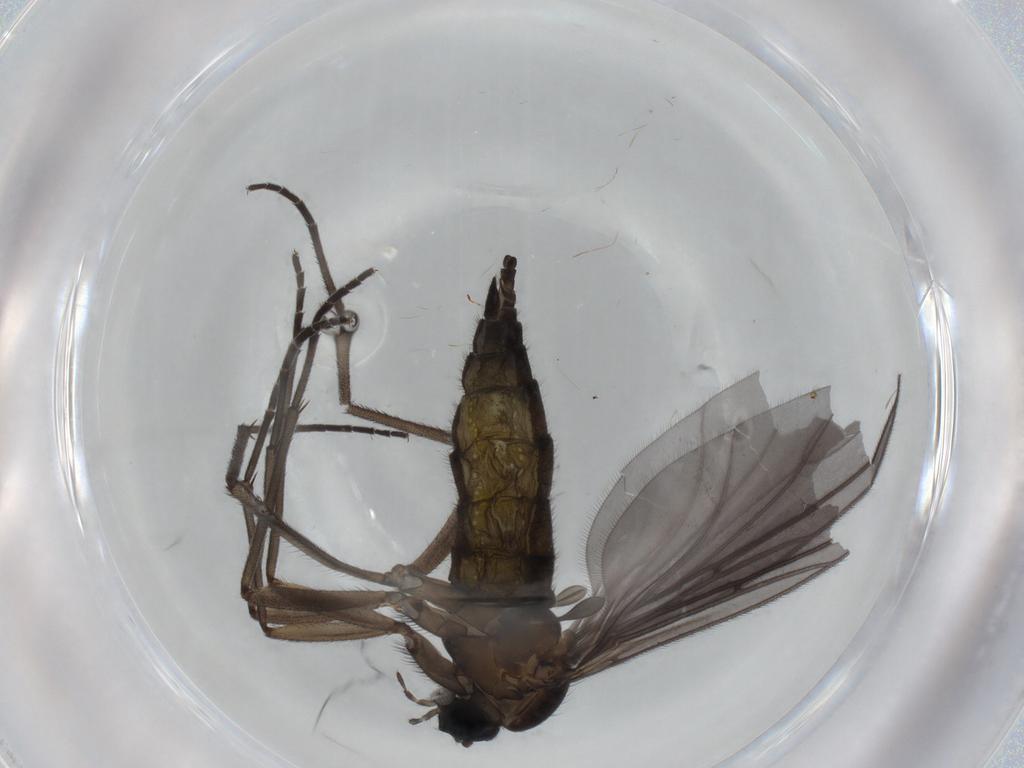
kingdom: Animalia
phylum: Arthropoda
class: Insecta
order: Diptera
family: Sciaridae
